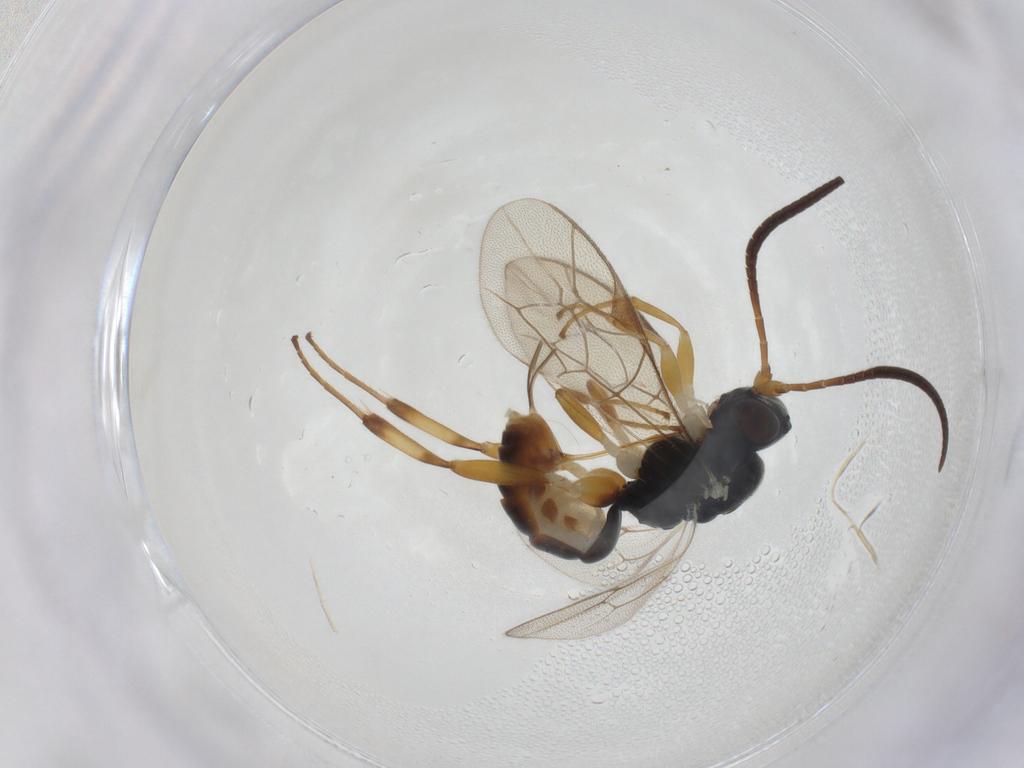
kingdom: Animalia
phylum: Arthropoda
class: Insecta
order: Hymenoptera
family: Ichneumonidae
